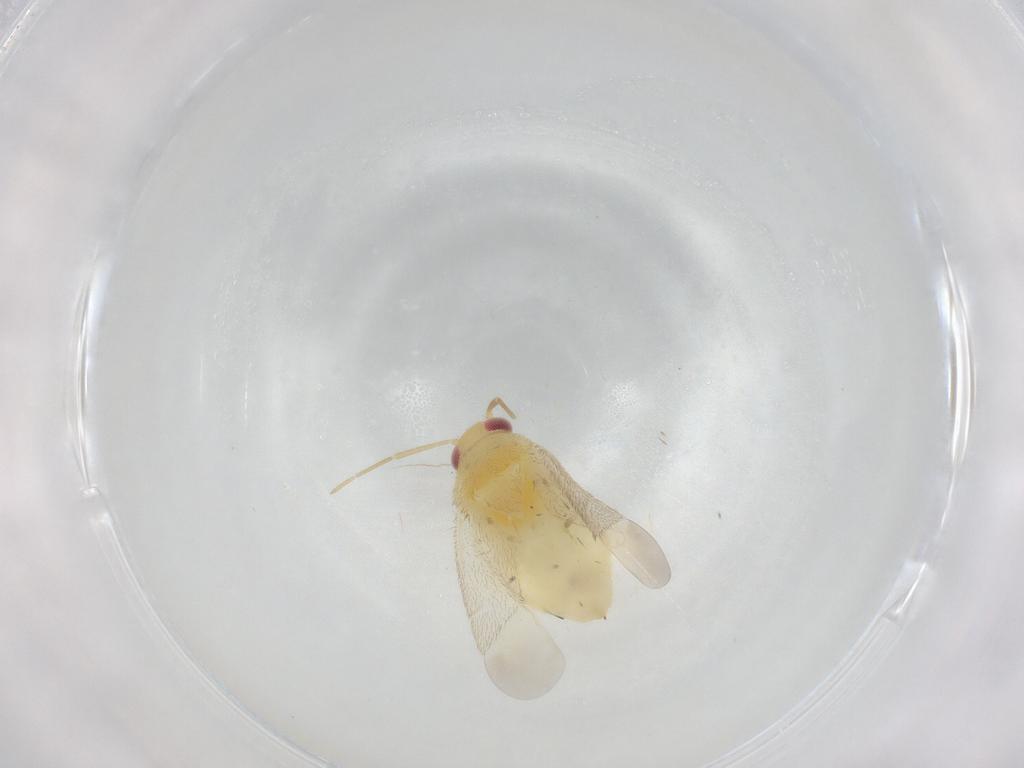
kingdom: Animalia
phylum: Arthropoda
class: Insecta
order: Hemiptera
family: Miridae
